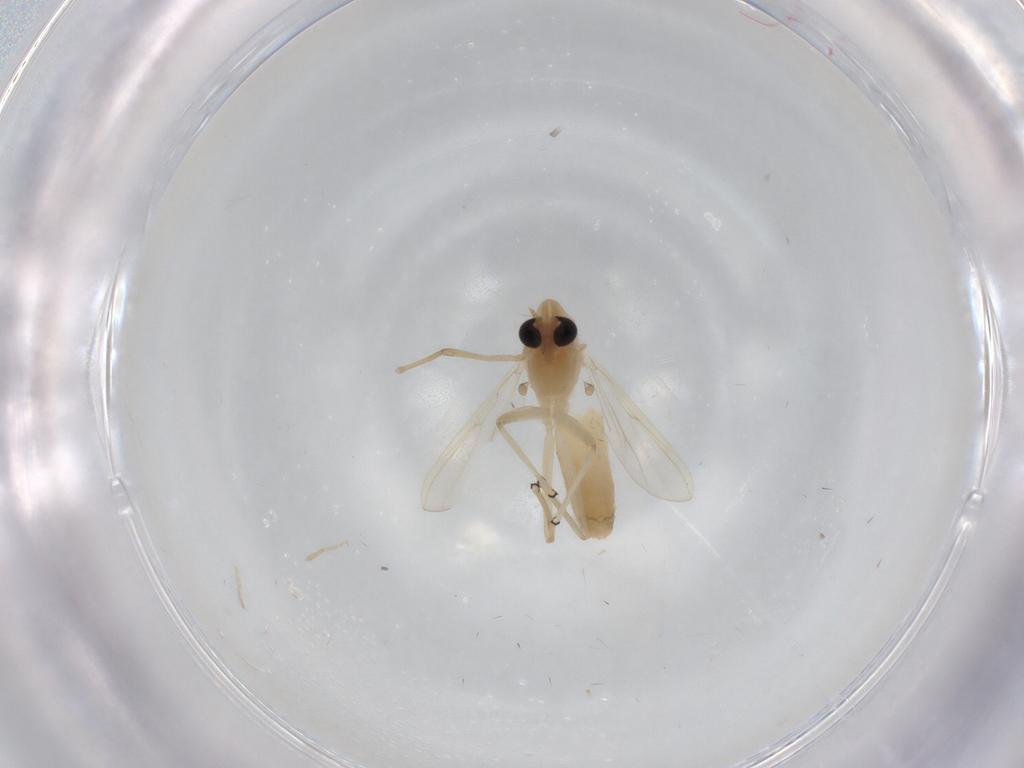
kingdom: Animalia
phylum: Arthropoda
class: Insecta
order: Diptera
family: Chironomidae
